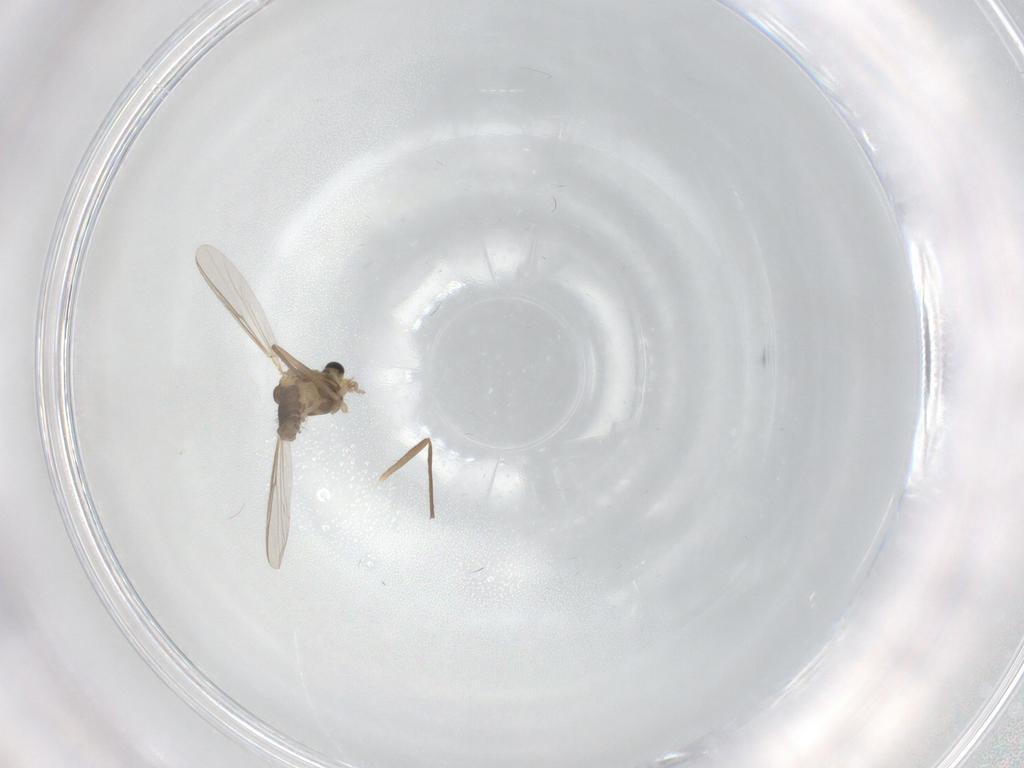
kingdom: Animalia
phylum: Arthropoda
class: Insecta
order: Diptera
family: Chironomidae
